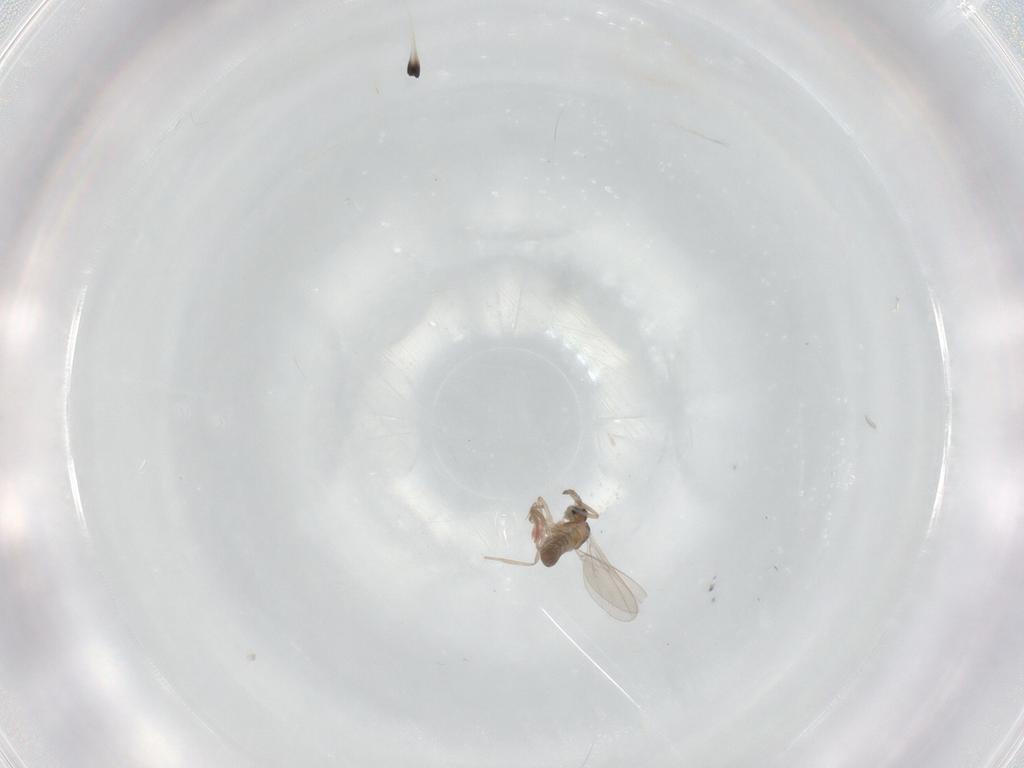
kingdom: Animalia
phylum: Arthropoda
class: Insecta
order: Diptera
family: Cecidomyiidae
